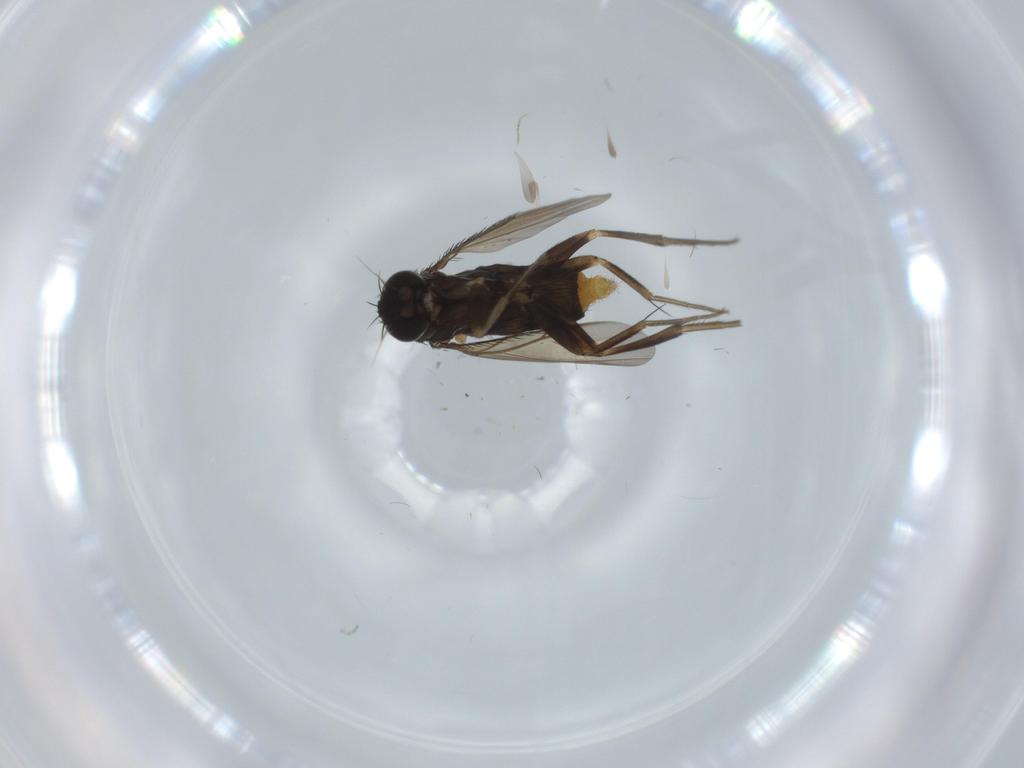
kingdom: Animalia
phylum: Arthropoda
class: Insecta
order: Diptera
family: Phoridae
